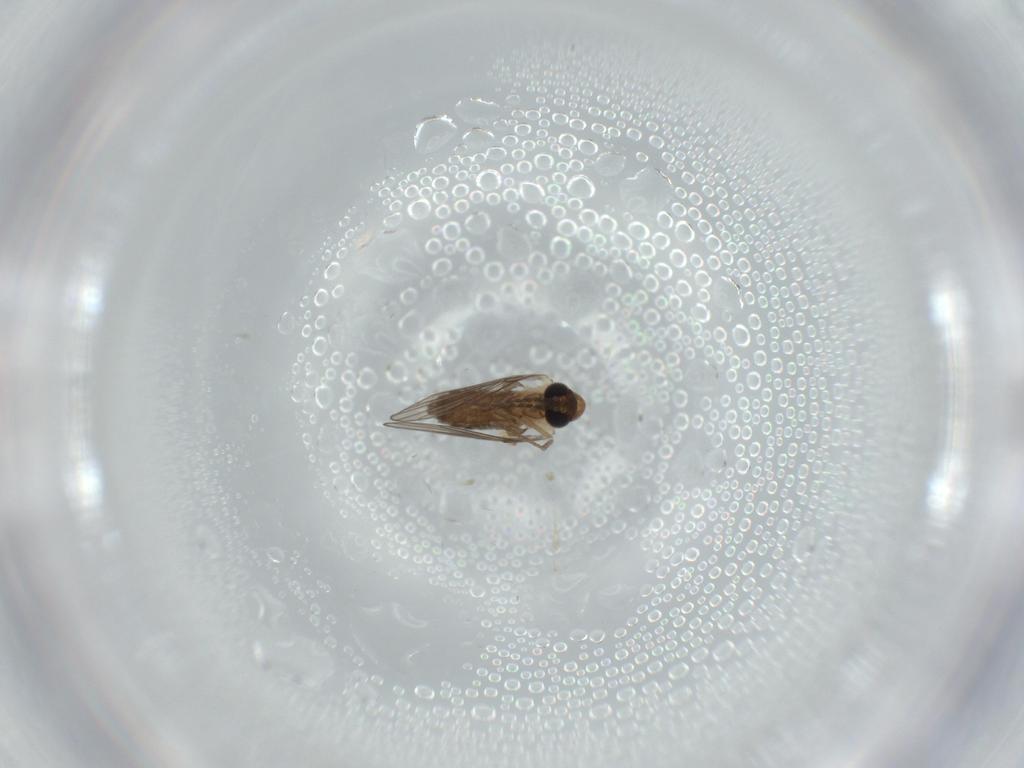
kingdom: Animalia
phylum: Arthropoda
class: Insecta
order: Diptera
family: Psychodidae
